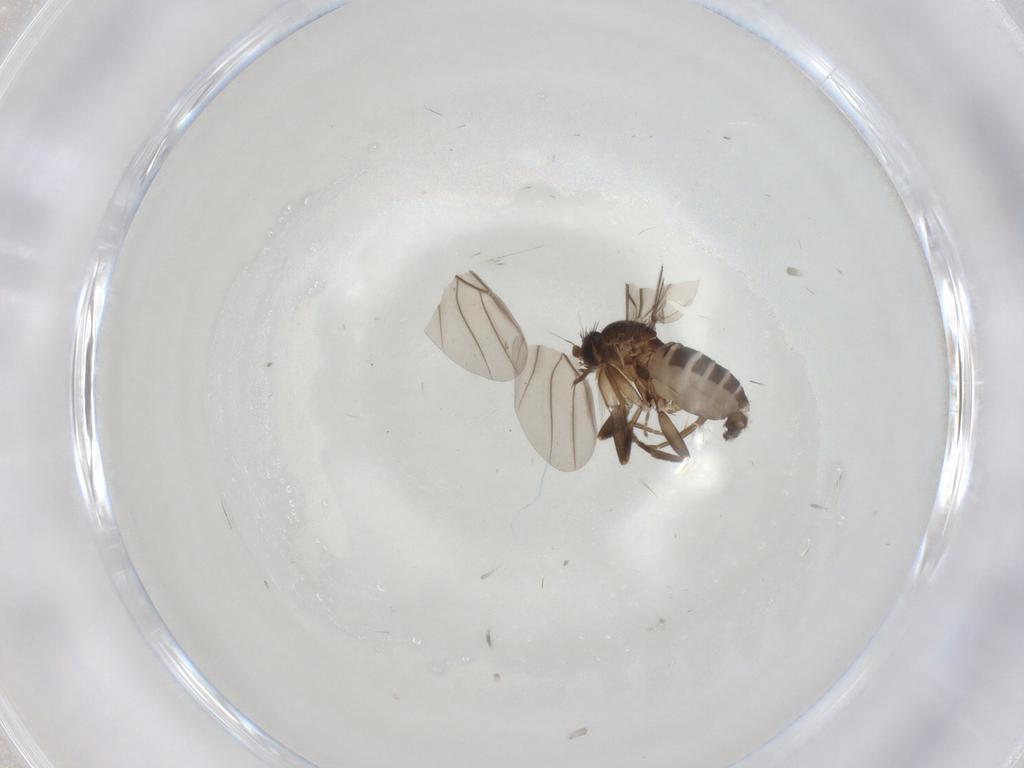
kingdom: Animalia
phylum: Arthropoda
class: Insecta
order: Diptera
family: Phoridae
